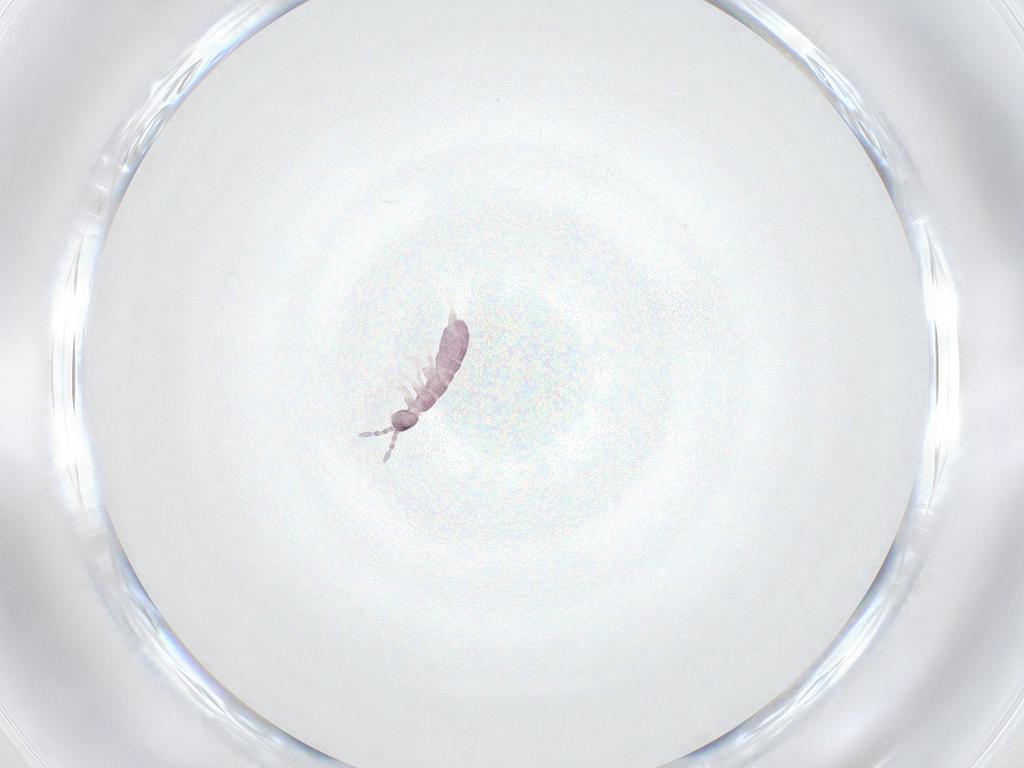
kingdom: Animalia
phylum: Arthropoda
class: Collembola
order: Entomobryomorpha
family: Isotomidae
